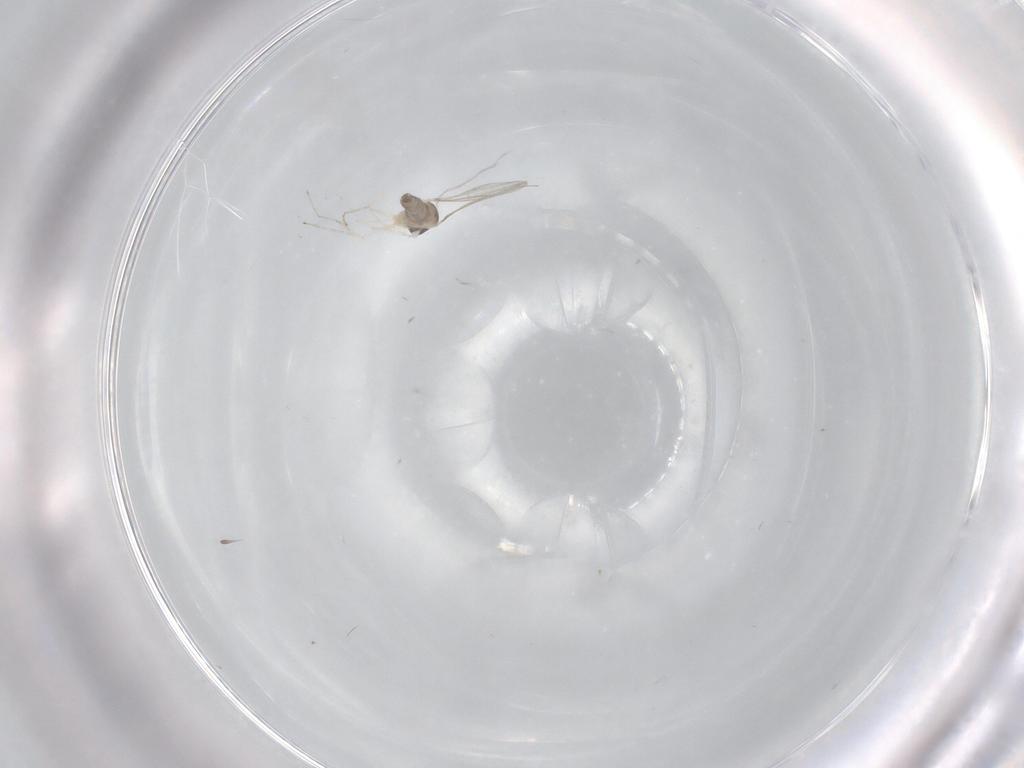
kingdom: Animalia
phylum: Arthropoda
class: Insecta
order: Diptera
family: Cecidomyiidae
